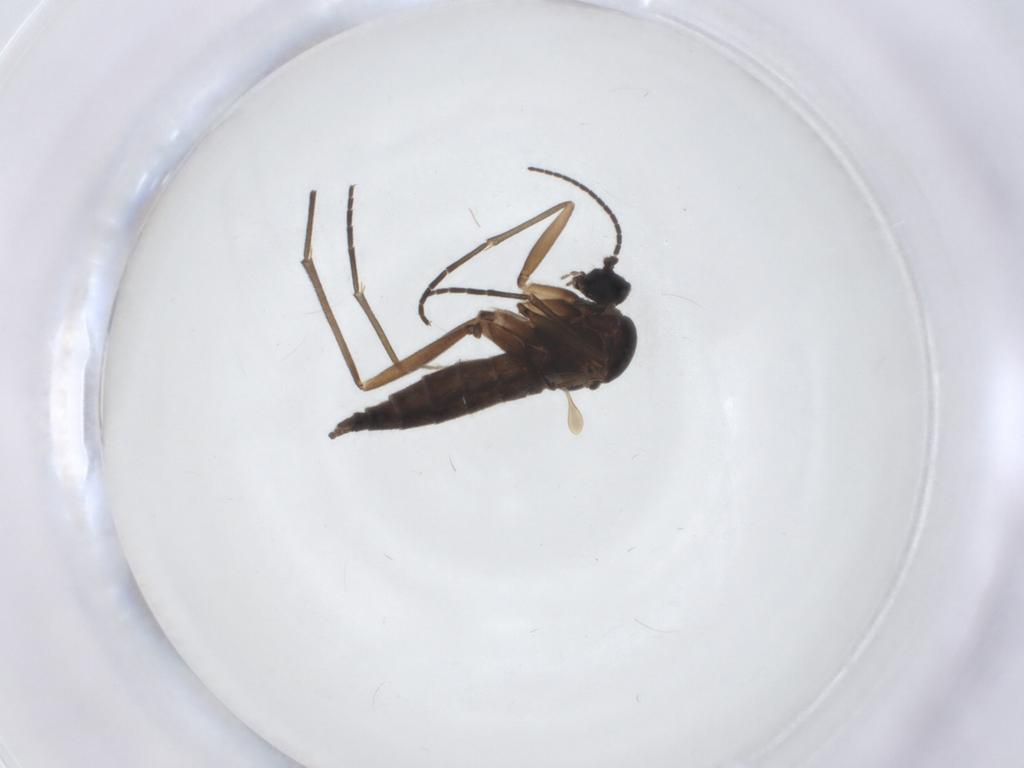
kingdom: Animalia
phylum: Arthropoda
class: Insecta
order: Diptera
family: Sciaridae
